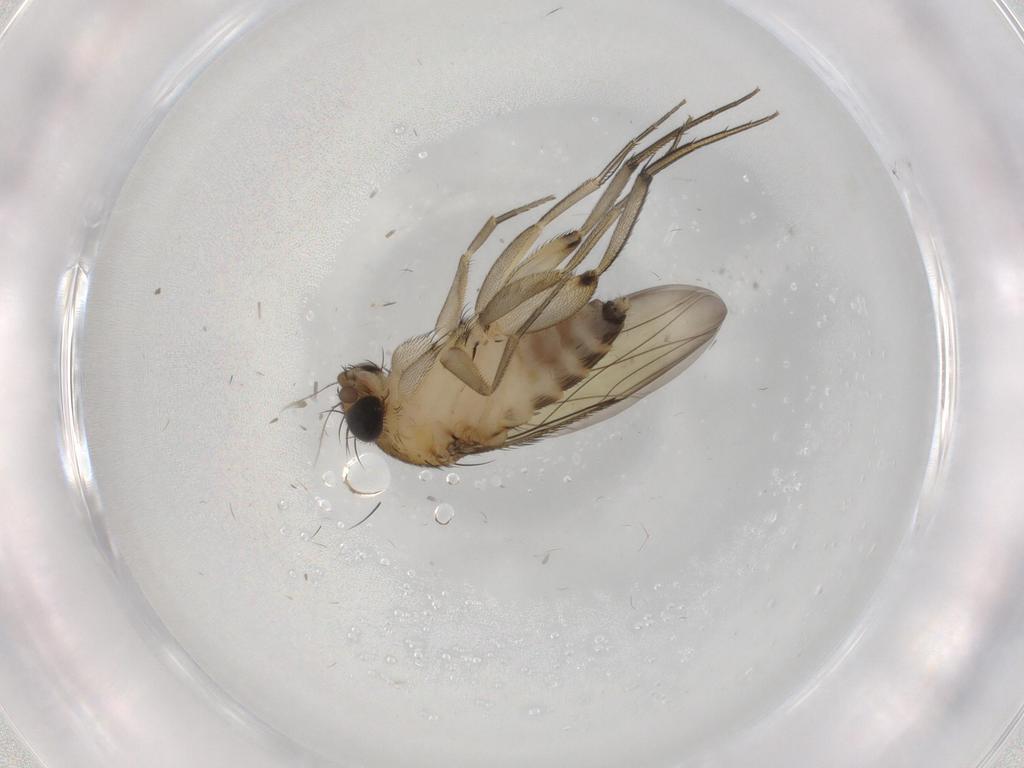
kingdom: Animalia
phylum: Arthropoda
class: Insecta
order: Diptera
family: Phoridae
